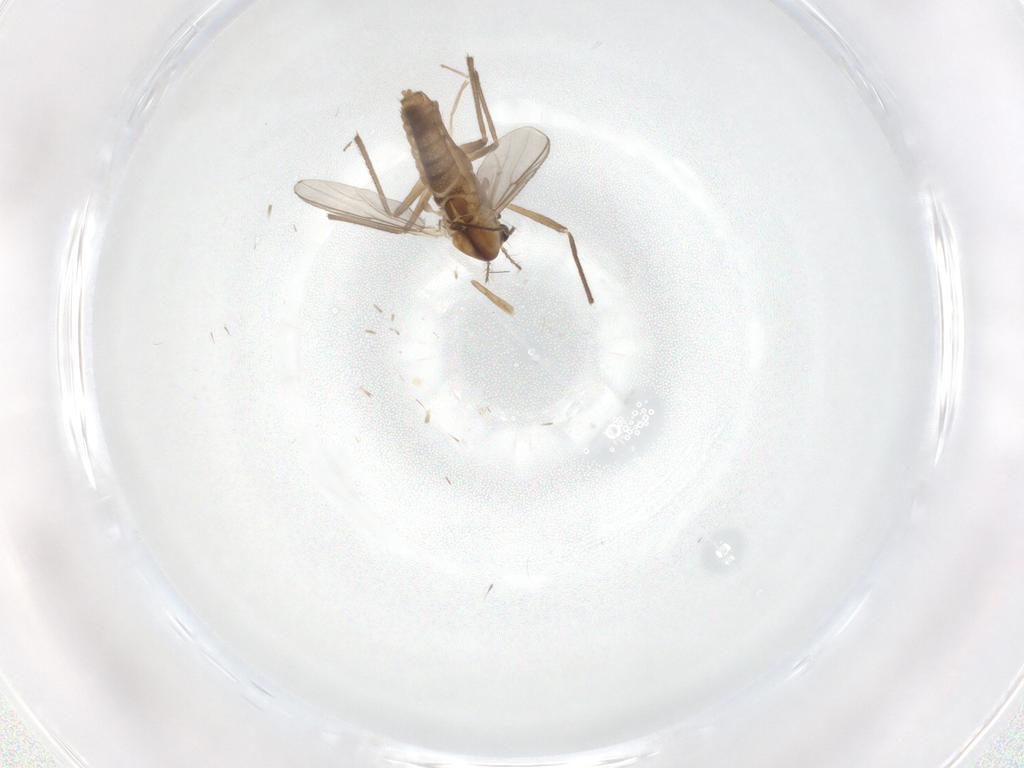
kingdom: Animalia
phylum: Arthropoda
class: Insecta
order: Diptera
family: Chironomidae
